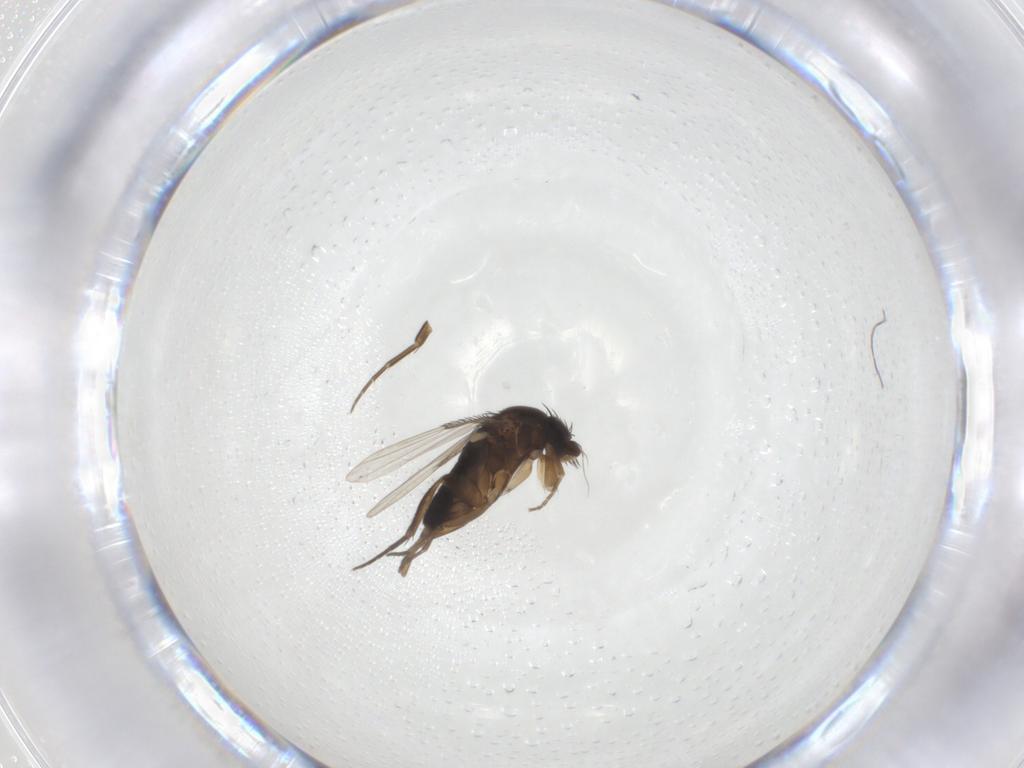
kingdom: Animalia
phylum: Arthropoda
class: Insecta
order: Diptera
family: Phoridae
